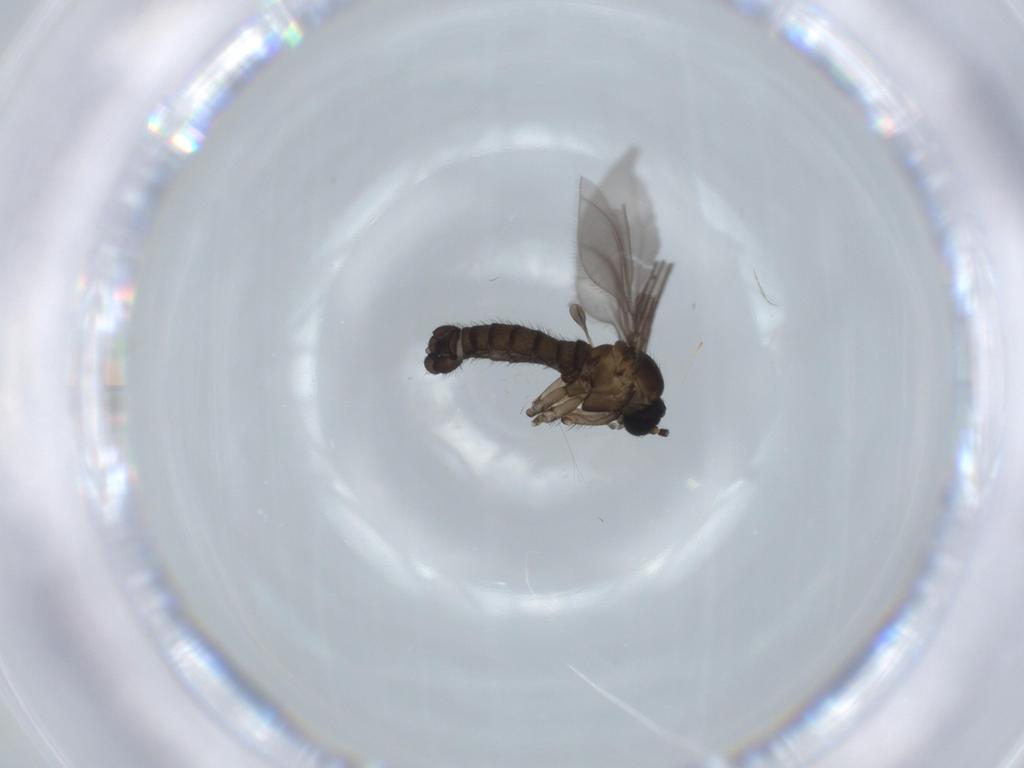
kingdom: Animalia
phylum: Arthropoda
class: Insecta
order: Diptera
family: Sciaridae
